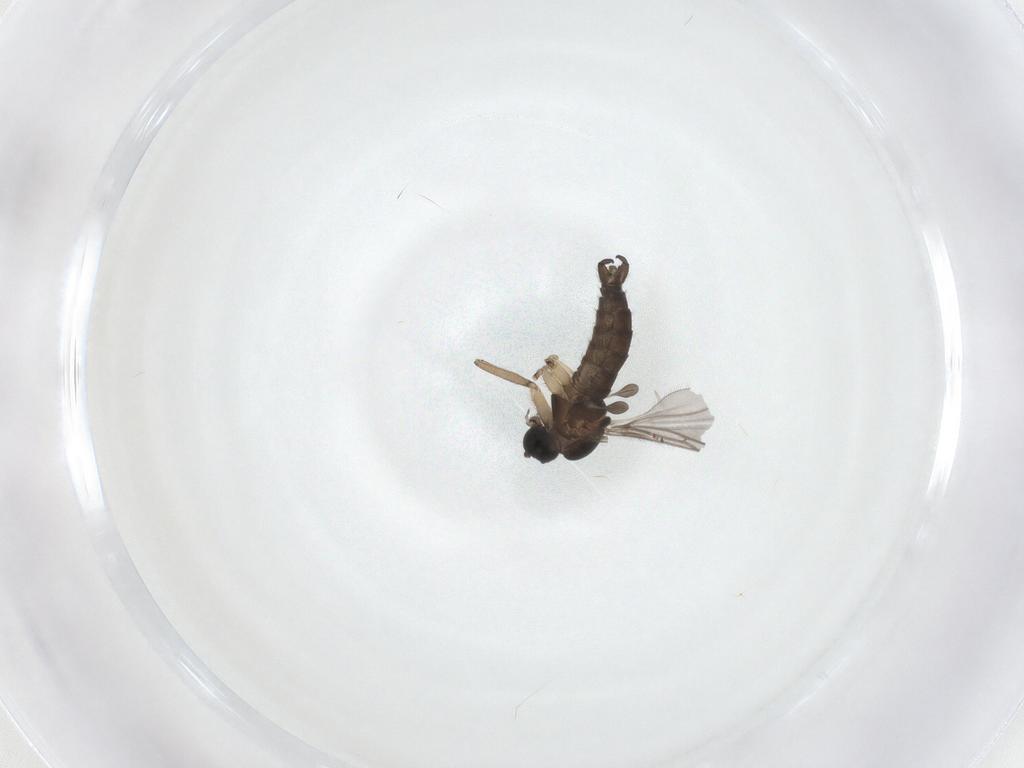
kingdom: Animalia
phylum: Arthropoda
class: Insecta
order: Diptera
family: Sciaridae
